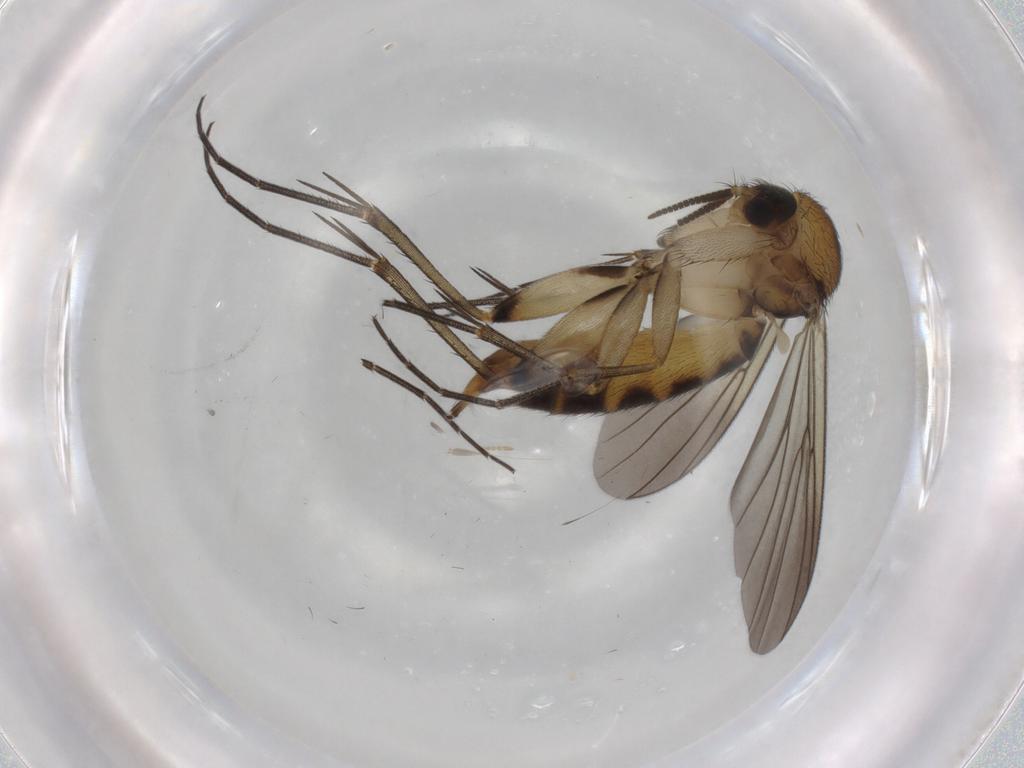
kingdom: Animalia
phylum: Arthropoda
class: Insecta
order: Diptera
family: Mycetophilidae
